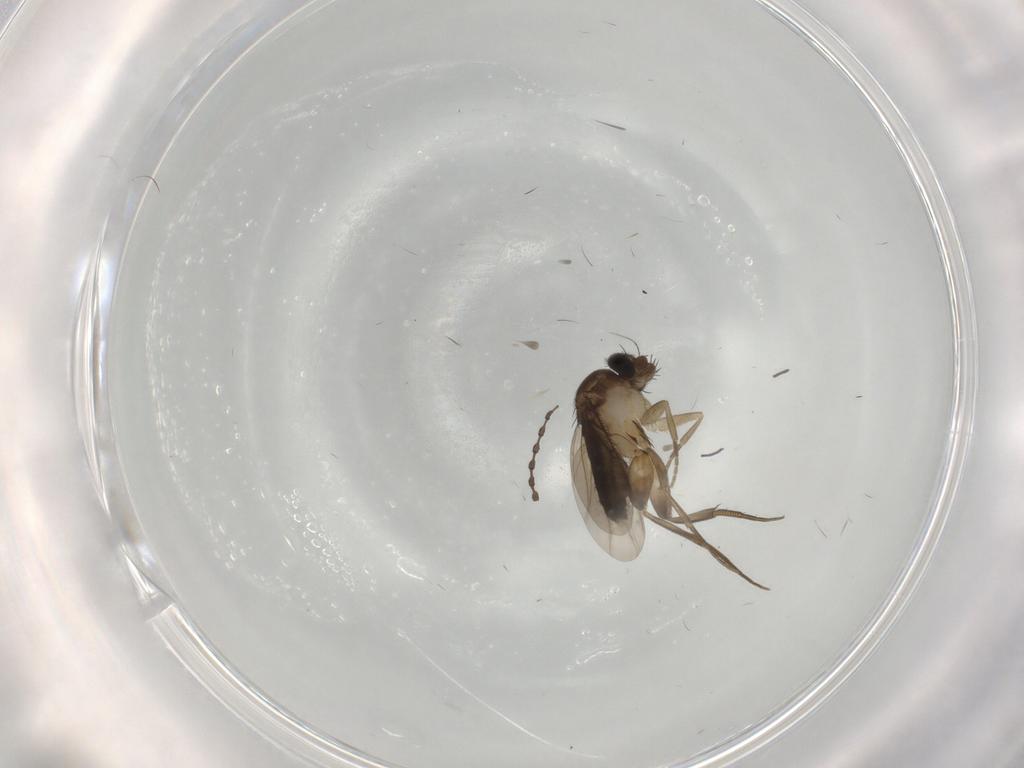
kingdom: Animalia
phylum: Arthropoda
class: Insecta
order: Diptera
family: Phoridae
